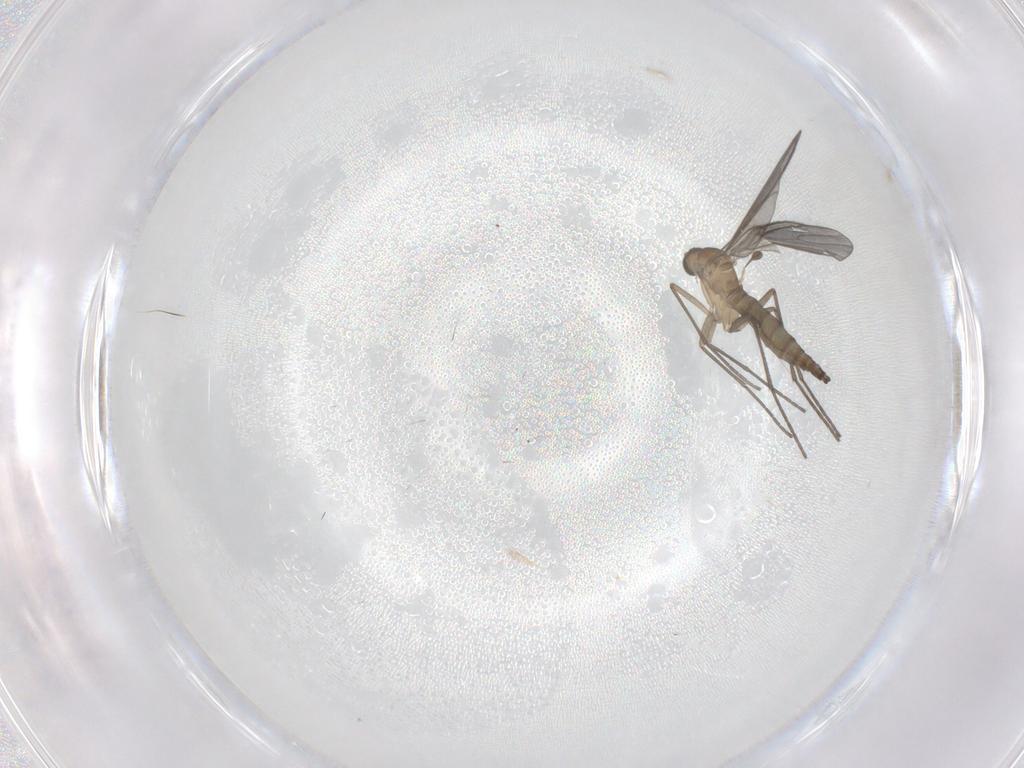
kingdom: Animalia
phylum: Arthropoda
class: Insecta
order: Diptera
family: Sciaridae
